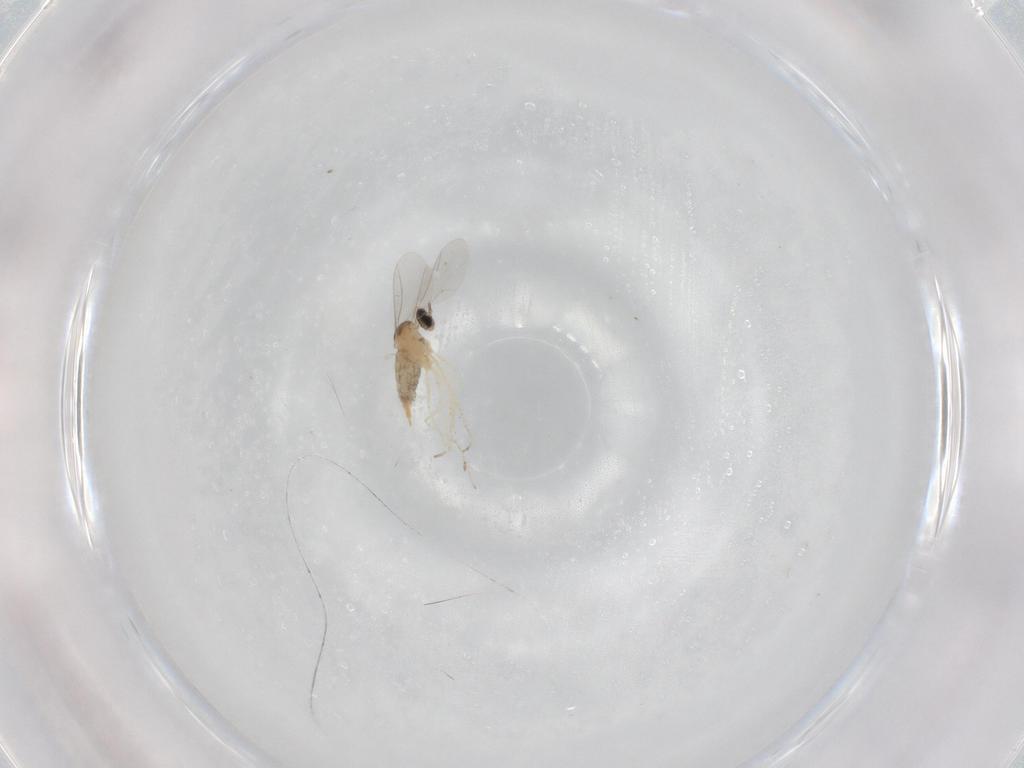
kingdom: Animalia
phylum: Arthropoda
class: Insecta
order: Diptera
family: Cecidomyiidae
